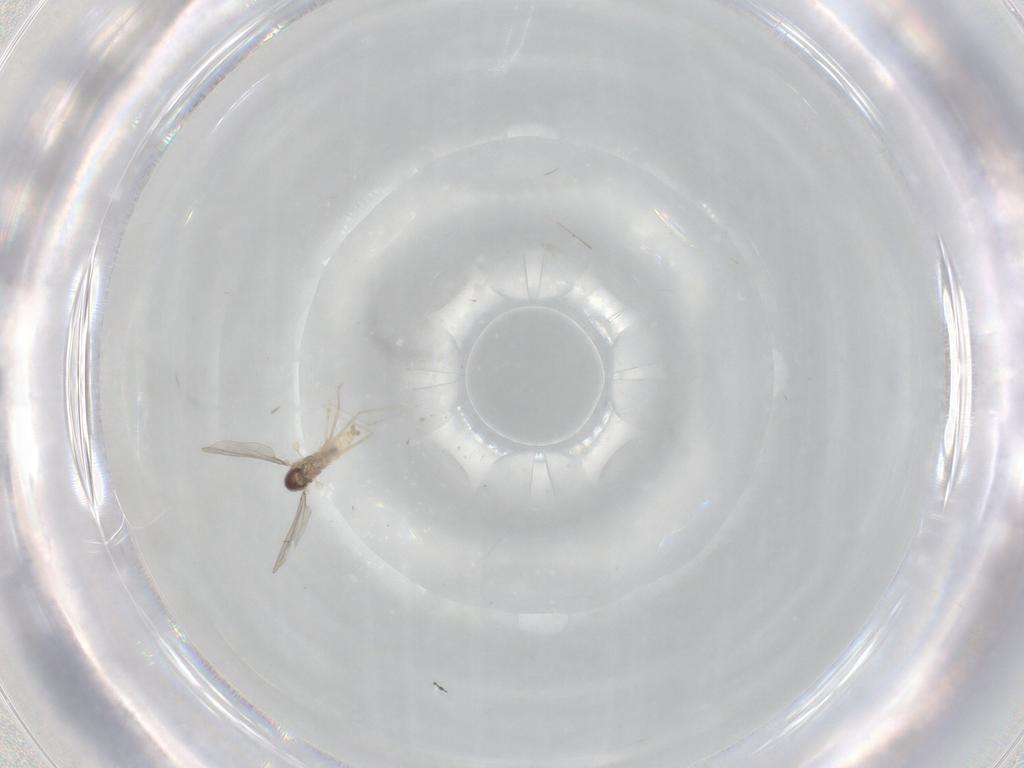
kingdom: Animalia
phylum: Arthropoda
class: Insecta
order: Diptera
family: Cecidomyiidae
